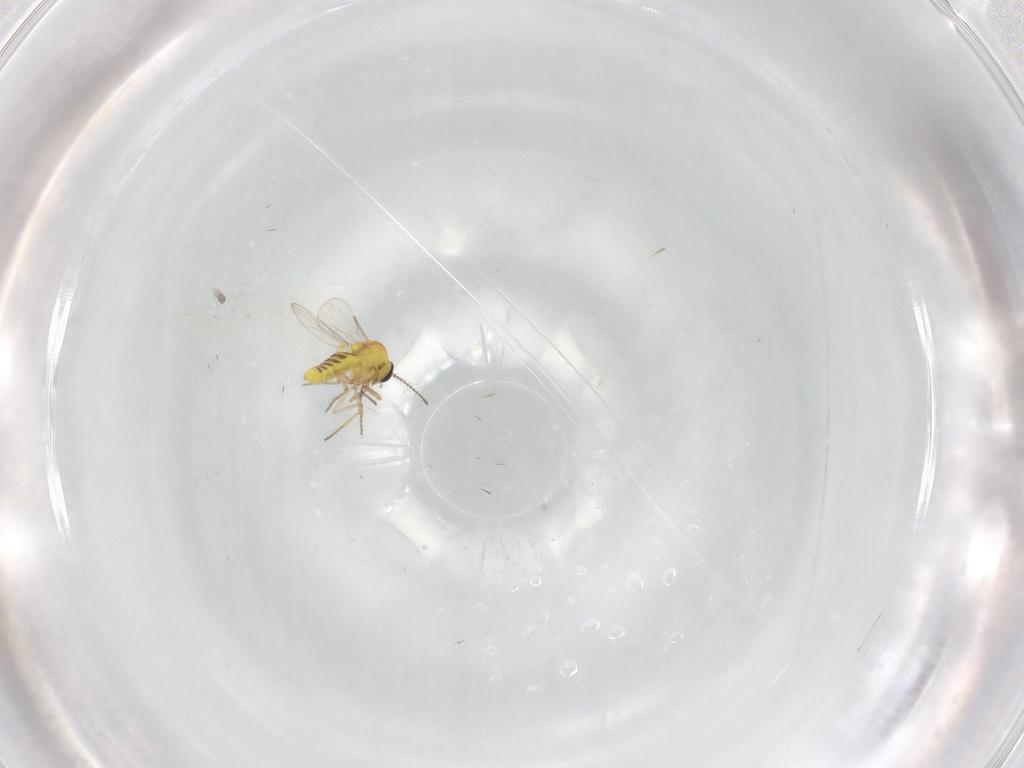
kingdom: Animalia
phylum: Arthropoda
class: Insecta
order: Diptera
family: Ceratopogonidae
